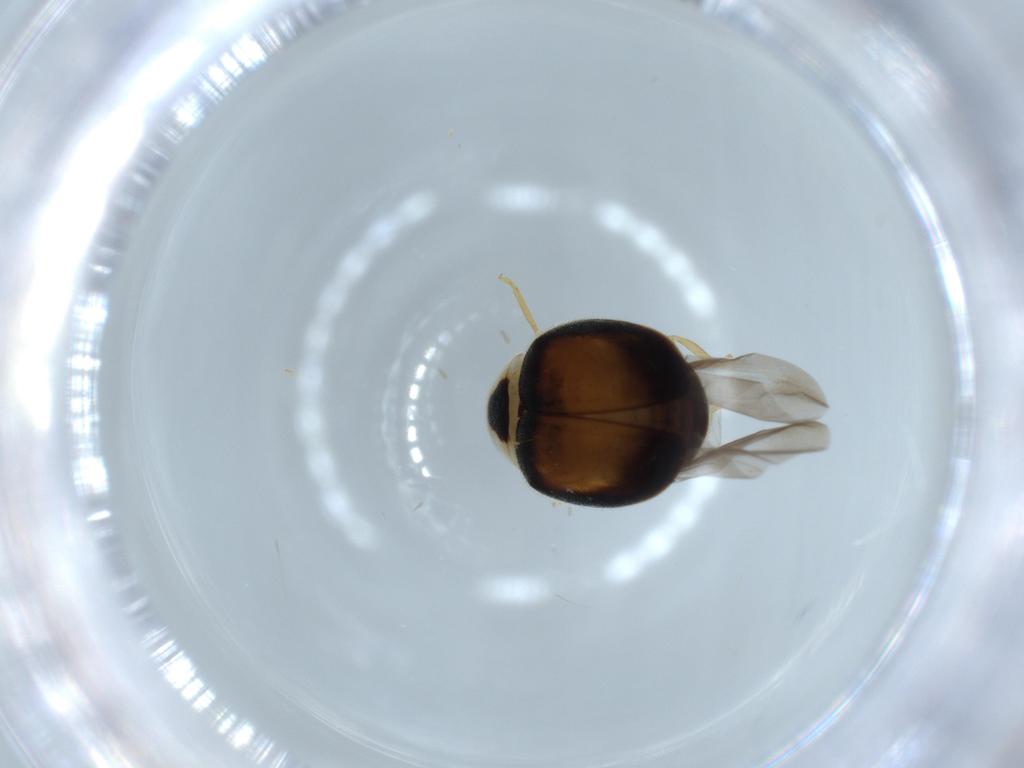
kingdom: Animalia
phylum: Arthropoda
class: Insecta
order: Coleoptera
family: Coccinellidae
